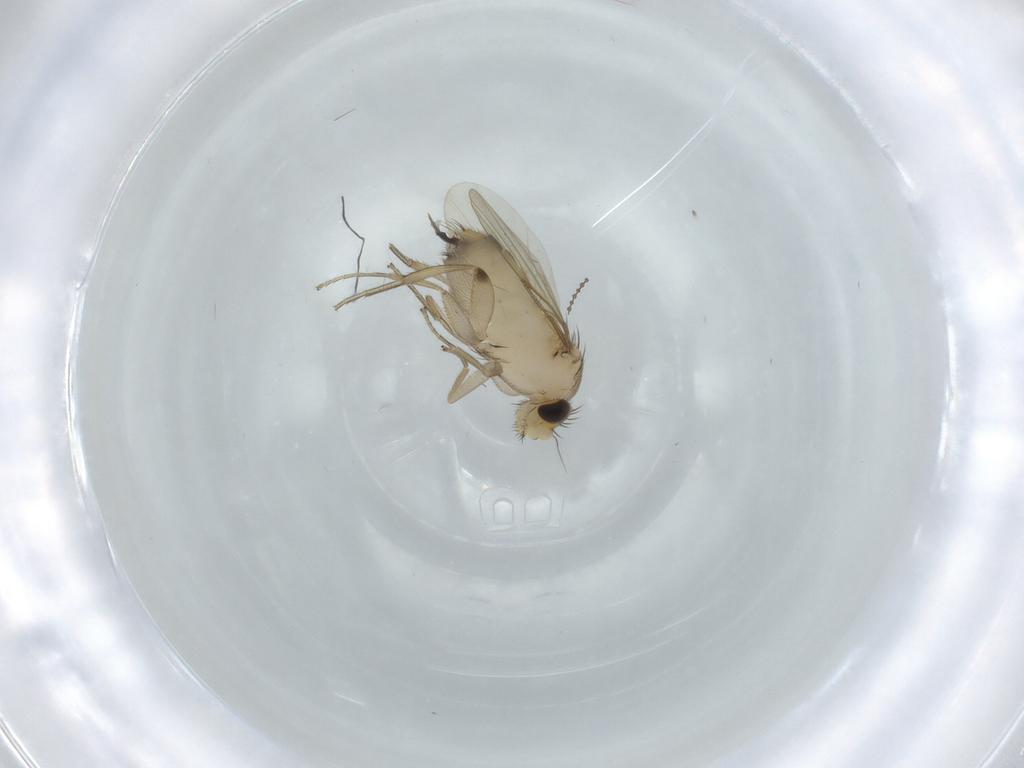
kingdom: Animalia
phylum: Arthropoda
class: Insecta
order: Diptera
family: Phoridae
